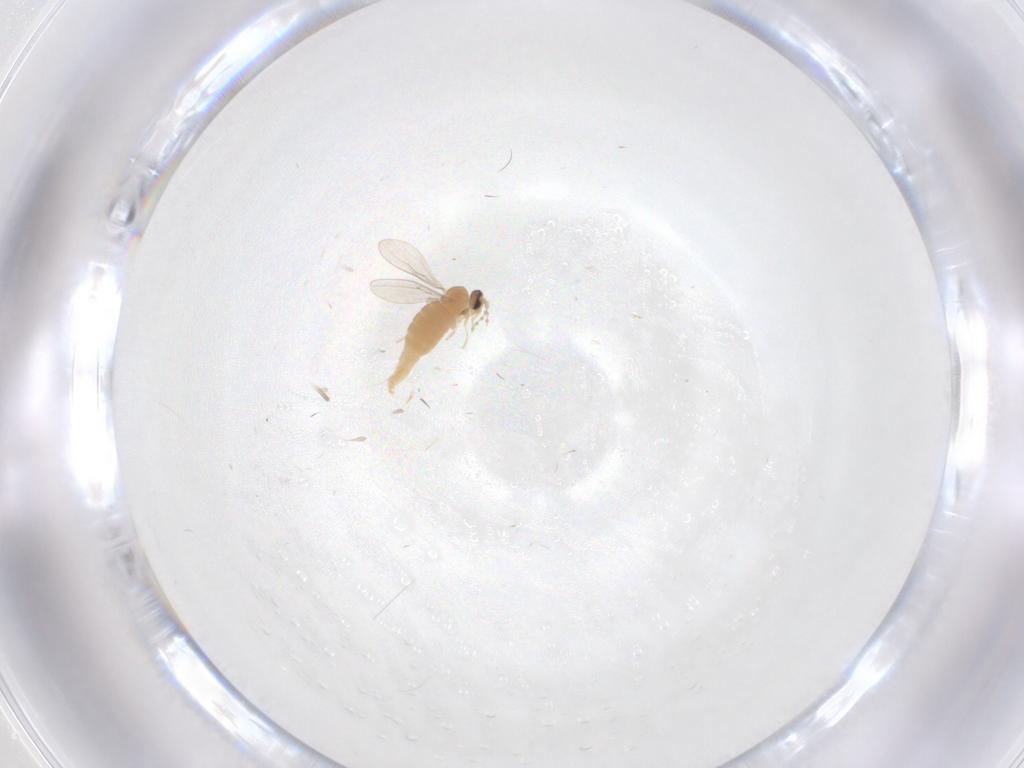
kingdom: Animalia
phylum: Arthropoda
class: Insecta
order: Diptera
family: Cecidomyiidae
